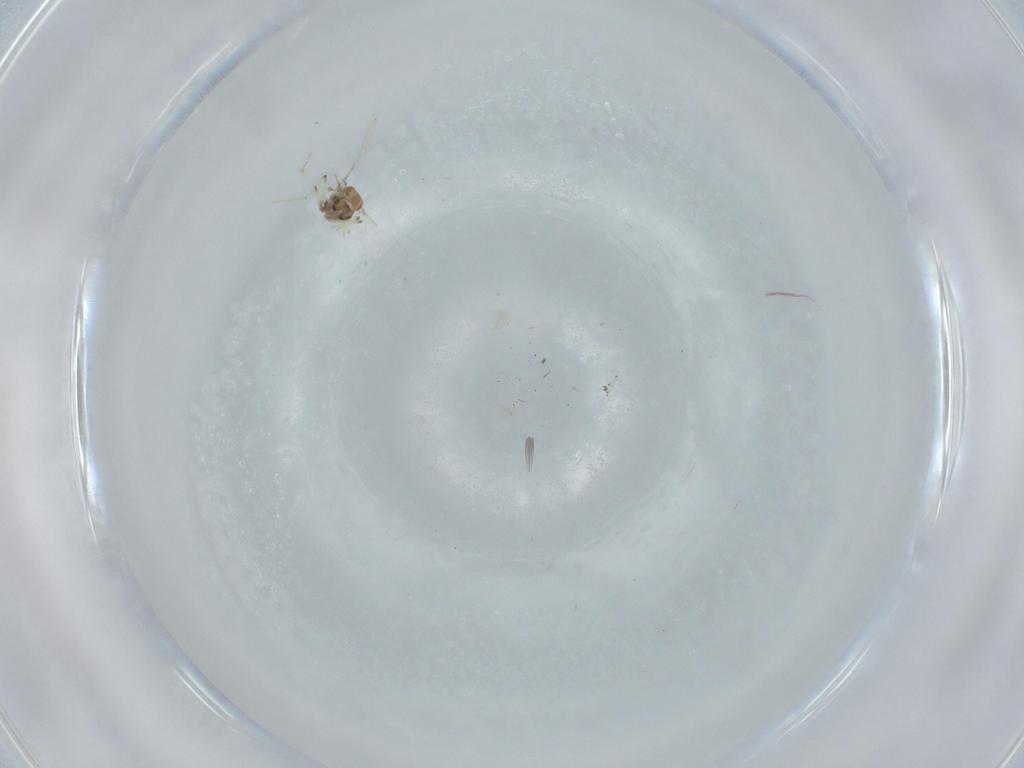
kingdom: Animalia
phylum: Arthropoda
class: Insecta
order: Diptera
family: Chironomidae
